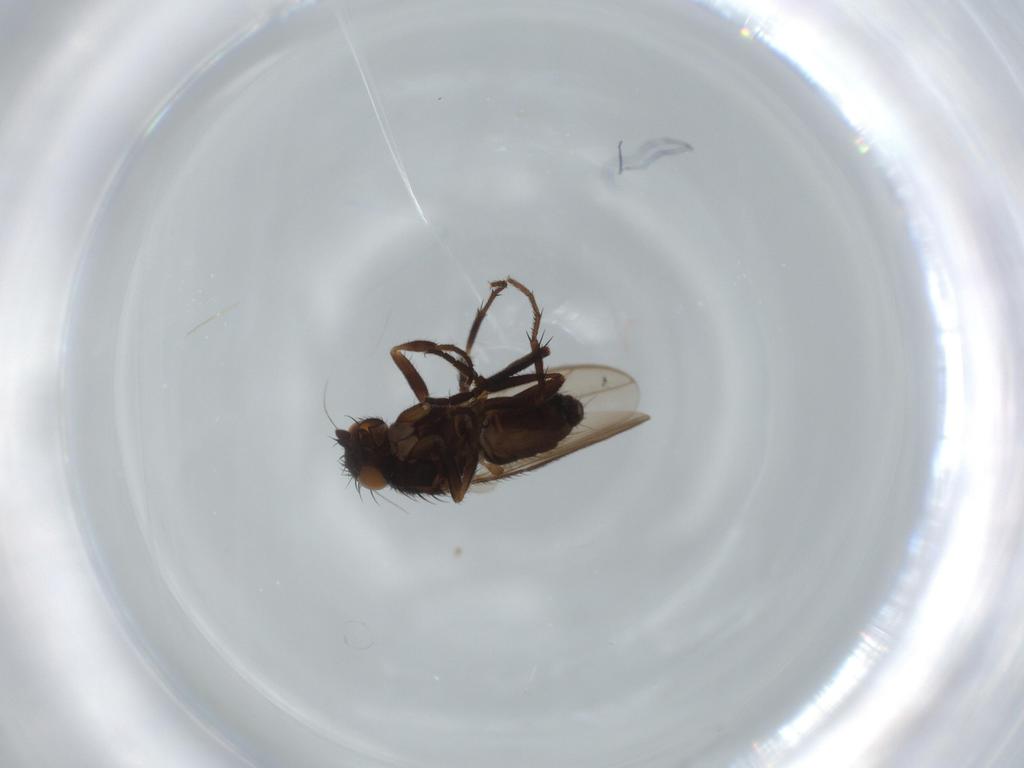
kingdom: Animalia
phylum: Arthropoda
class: Insecta
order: Diptera
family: Sphaeroceridae
